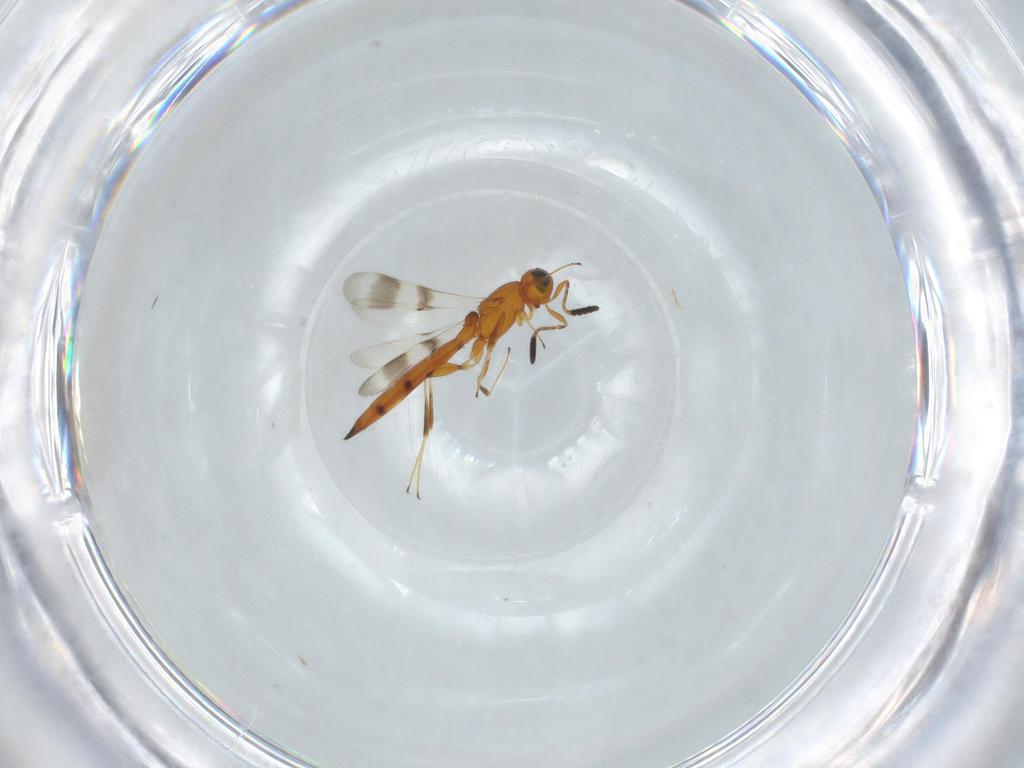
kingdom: Animalia
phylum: Arthropoda
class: Insecta
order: Hymenoptera
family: Scelionidae
